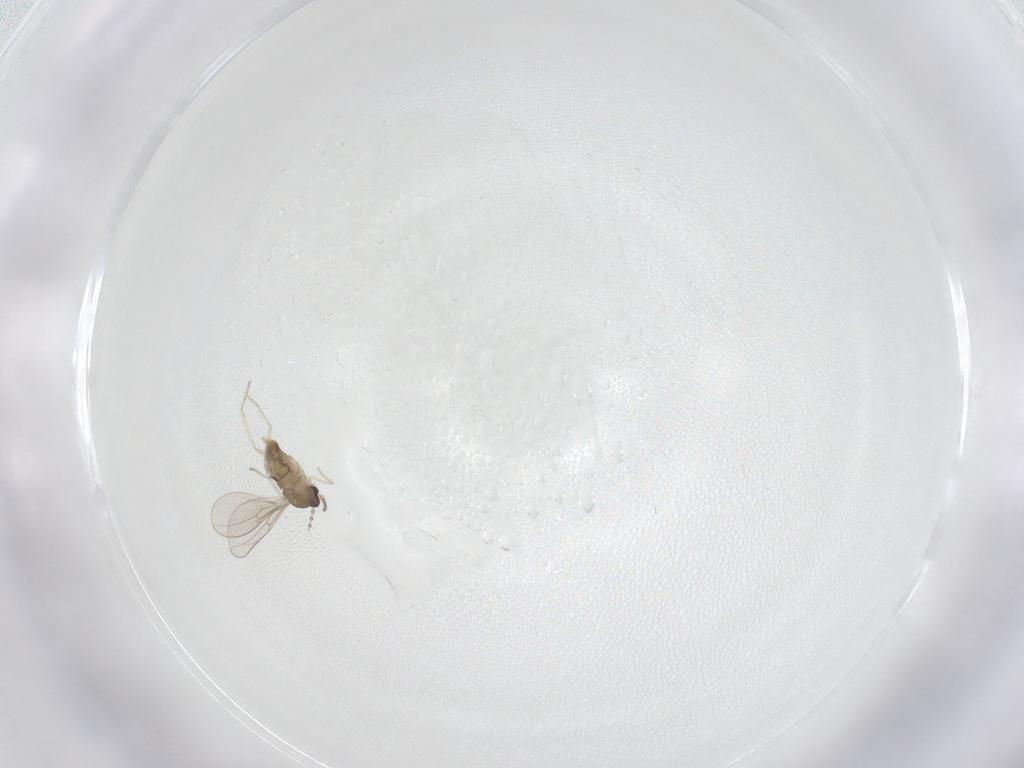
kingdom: Animalia
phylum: Arthropoda
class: Insecta
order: Diptera
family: Sciaridae
